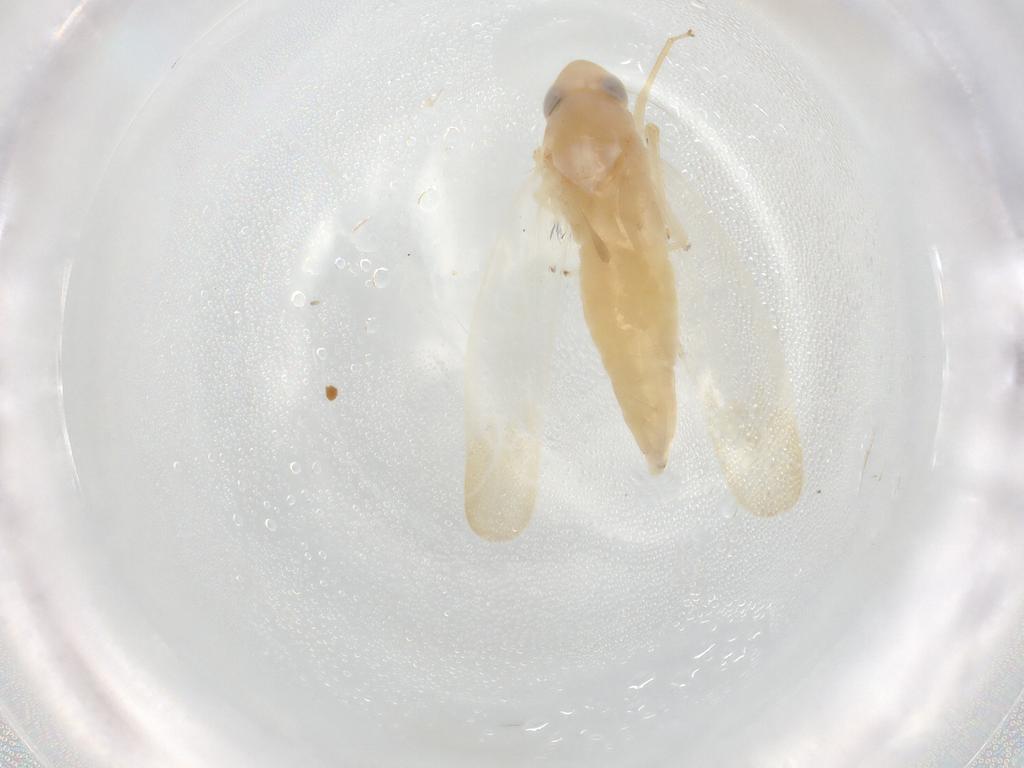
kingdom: Animalia
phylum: Arthropoda
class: Insecta
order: Hemiptera
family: Cicadellidae
